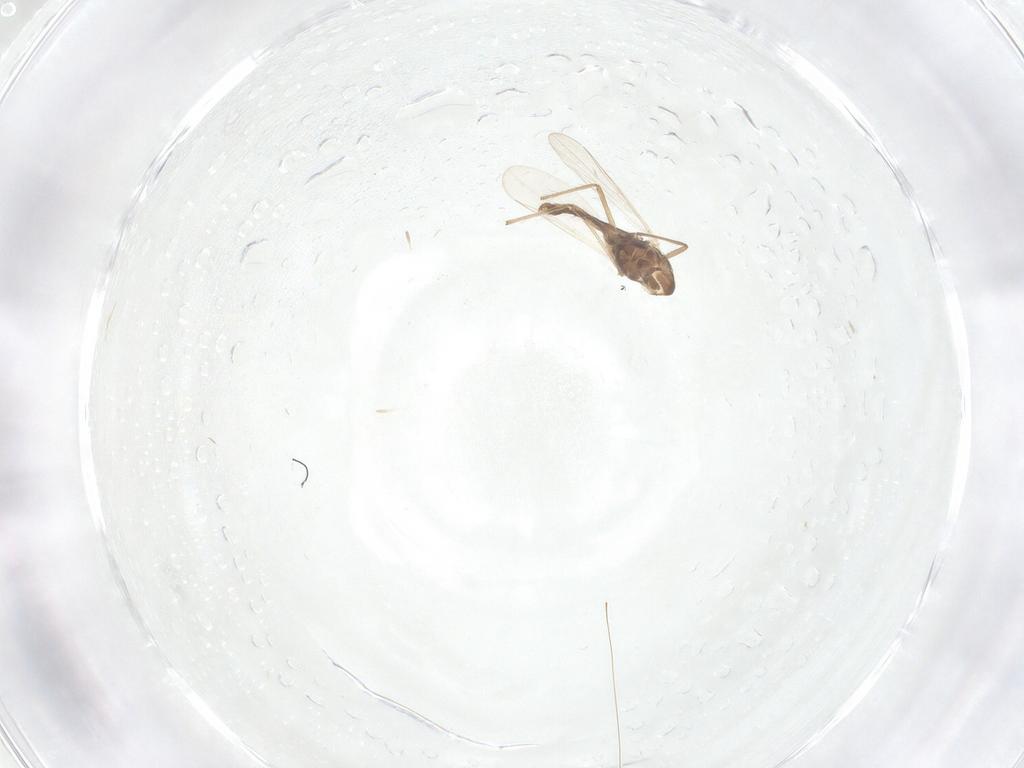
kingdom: Animalia
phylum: Arthropoda
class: Insecta
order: Diptera
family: Chironomidae
